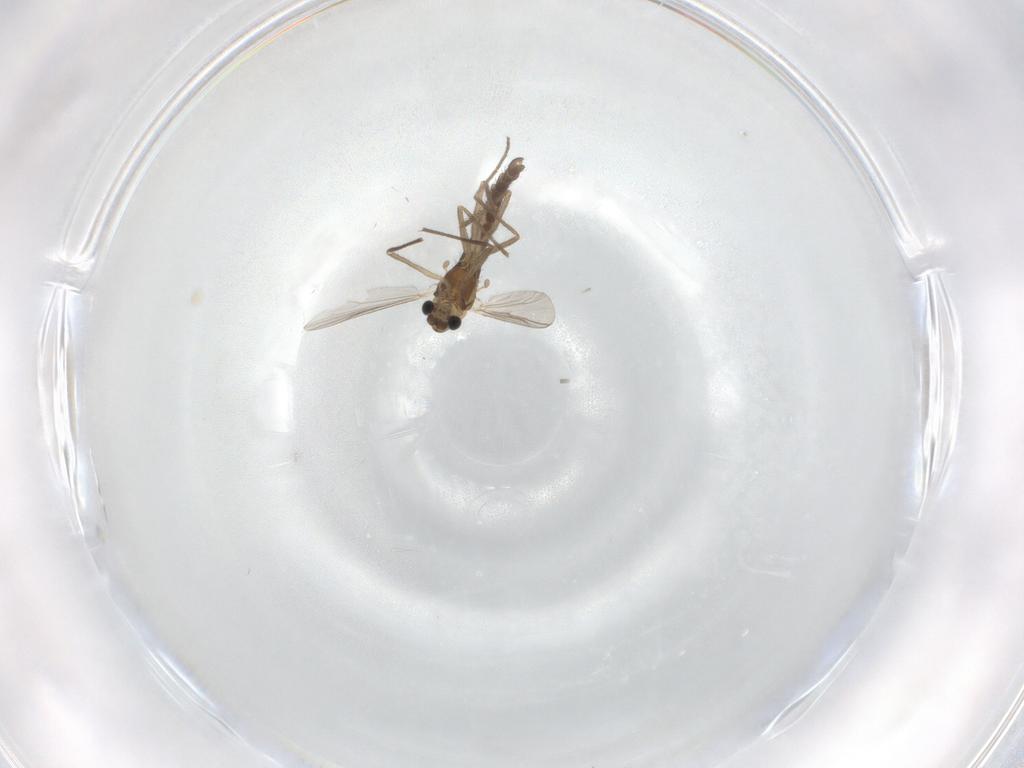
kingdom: Animalia
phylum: Arthropoda
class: Insecta
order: Diptera
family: Chironomidae
